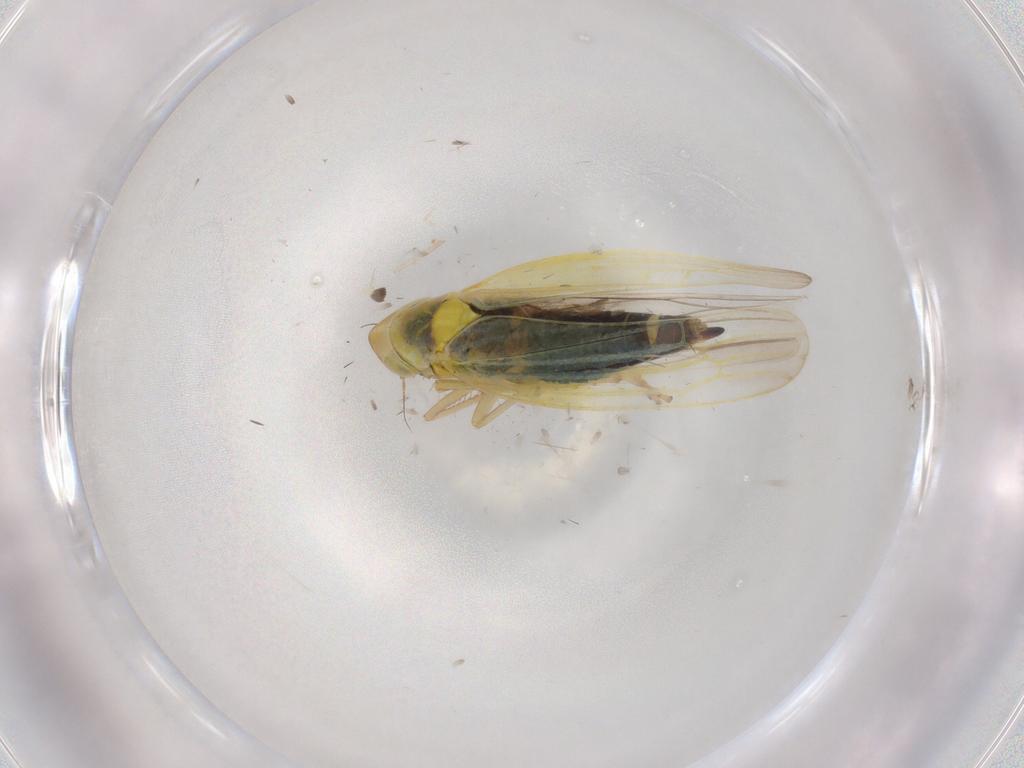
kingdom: Animalia
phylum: Arthropoda
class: Insecta
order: Hemiptera
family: Cicadellidae
